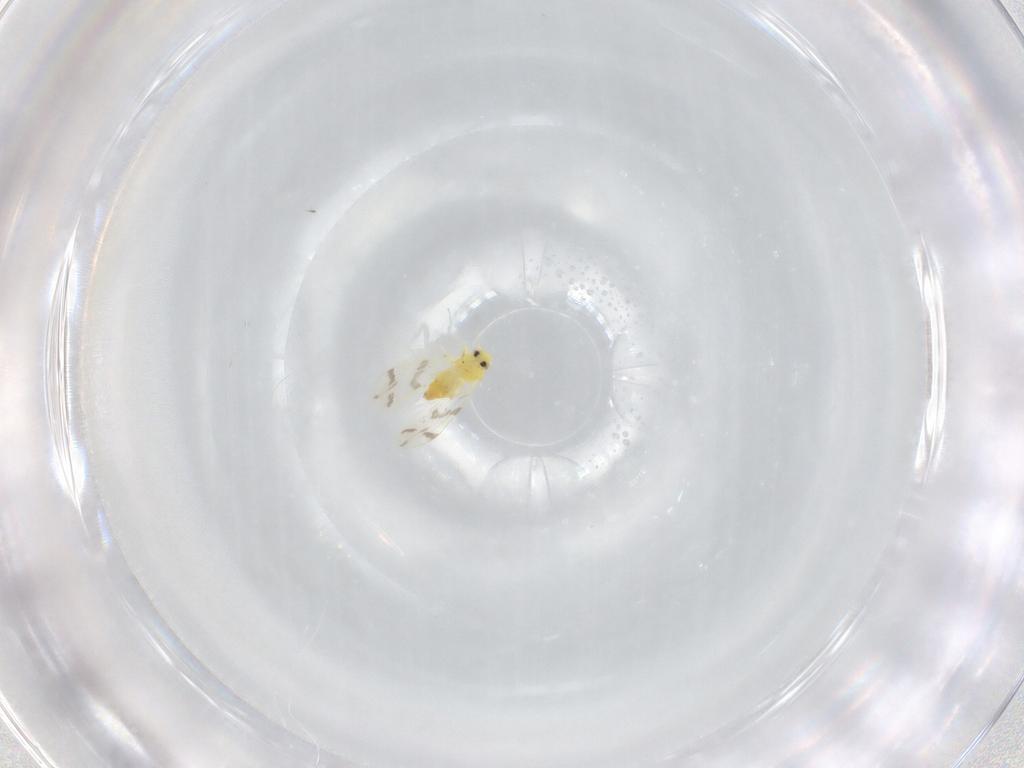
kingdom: Animalia
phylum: Arthropoda
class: Insecta
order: Hemiptera
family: Aleyrodidae
